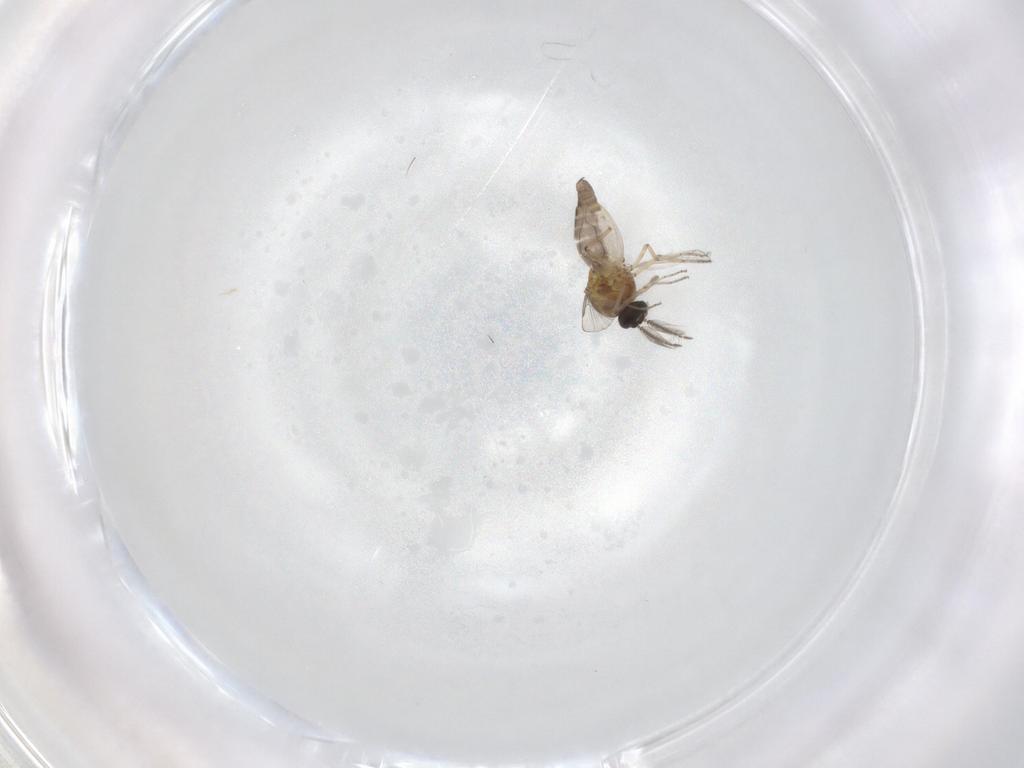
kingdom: Animalia
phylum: Arthropoda
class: Insecta
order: Diptera
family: Ceratopogonidae
